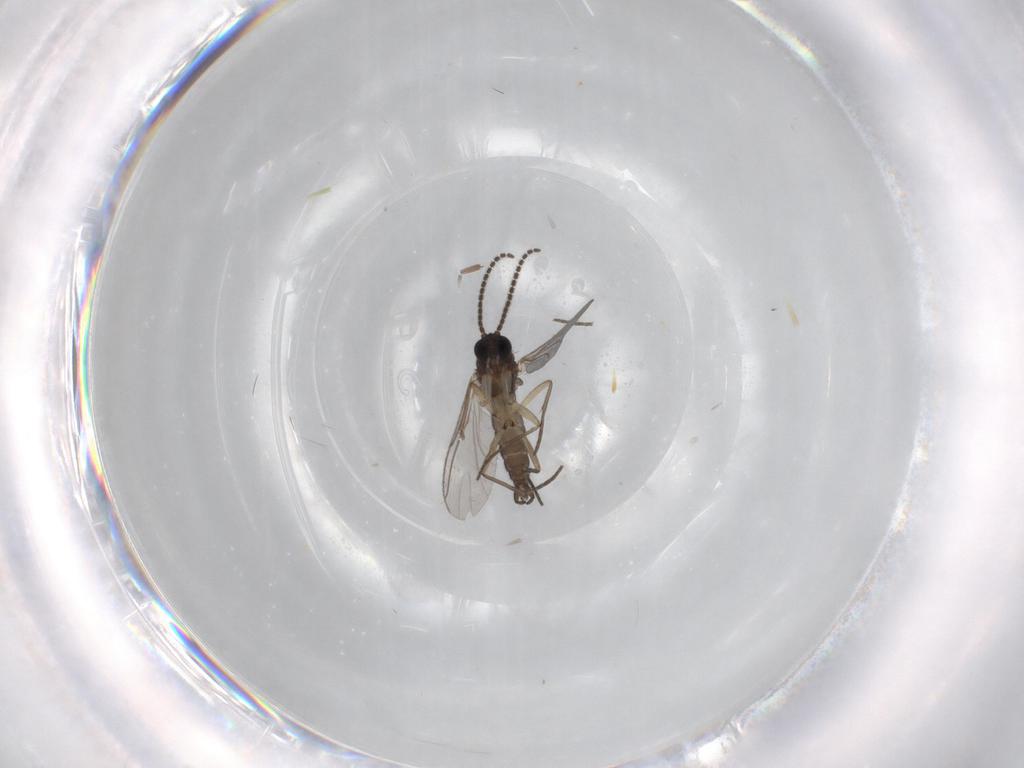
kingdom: Animalia
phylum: Arthropoda
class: Insecta
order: Diptera
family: Sciaridae
